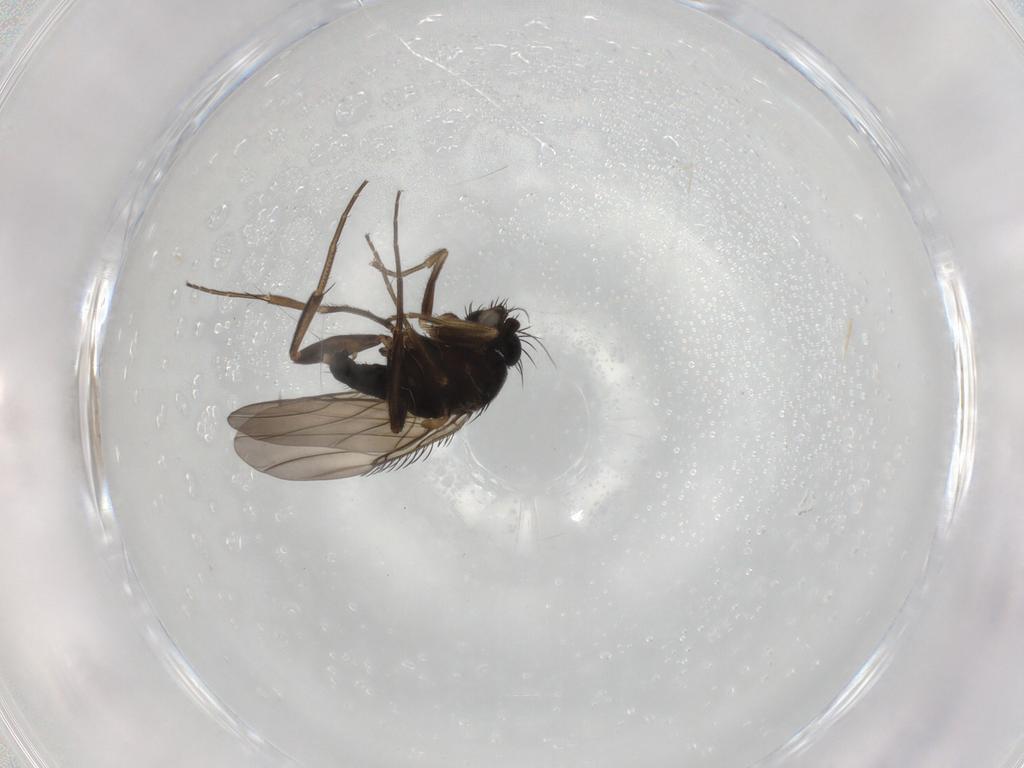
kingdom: Animalia
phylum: Arthropoda
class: Insecta
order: Diptera
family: Phoridae
